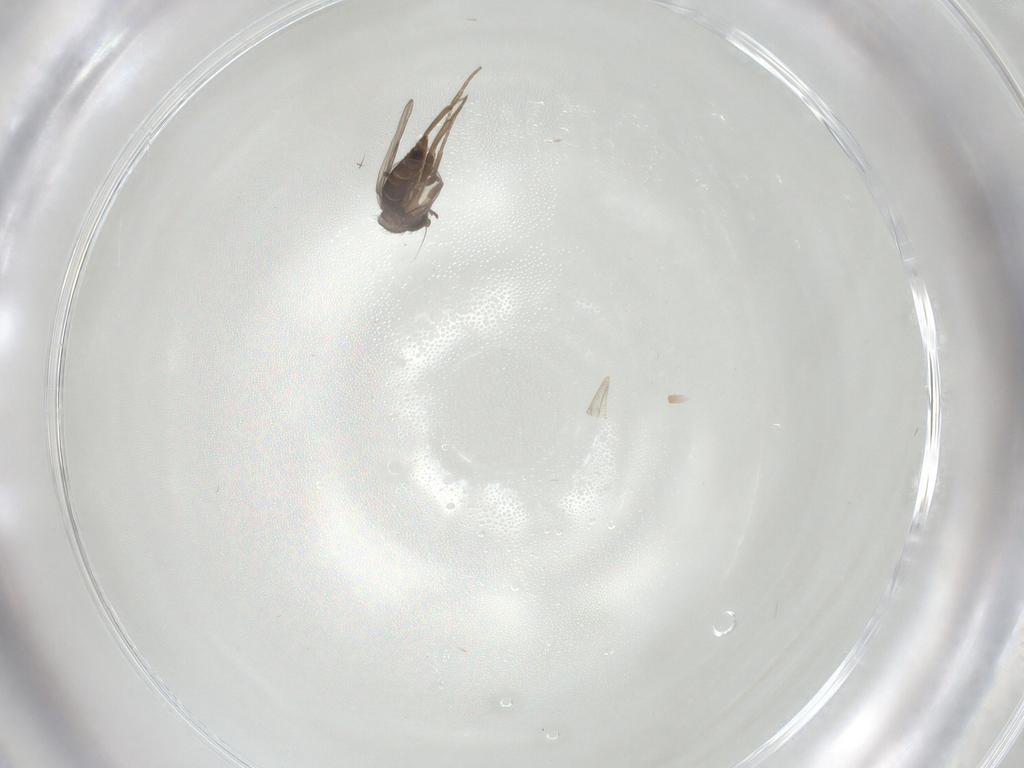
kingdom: Animalia
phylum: Arthropoda
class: Insecta
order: Diptera
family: Phoridae
